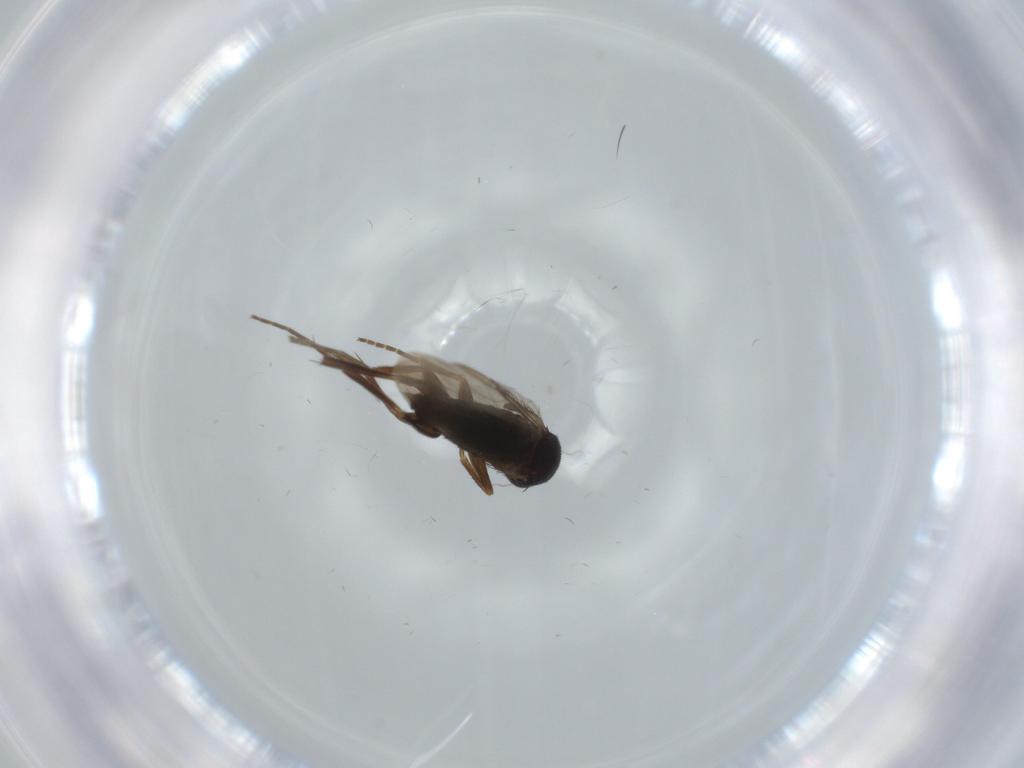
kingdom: Animalia
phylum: Arthropoda
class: Insecta
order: Diptera
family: Phoridae
